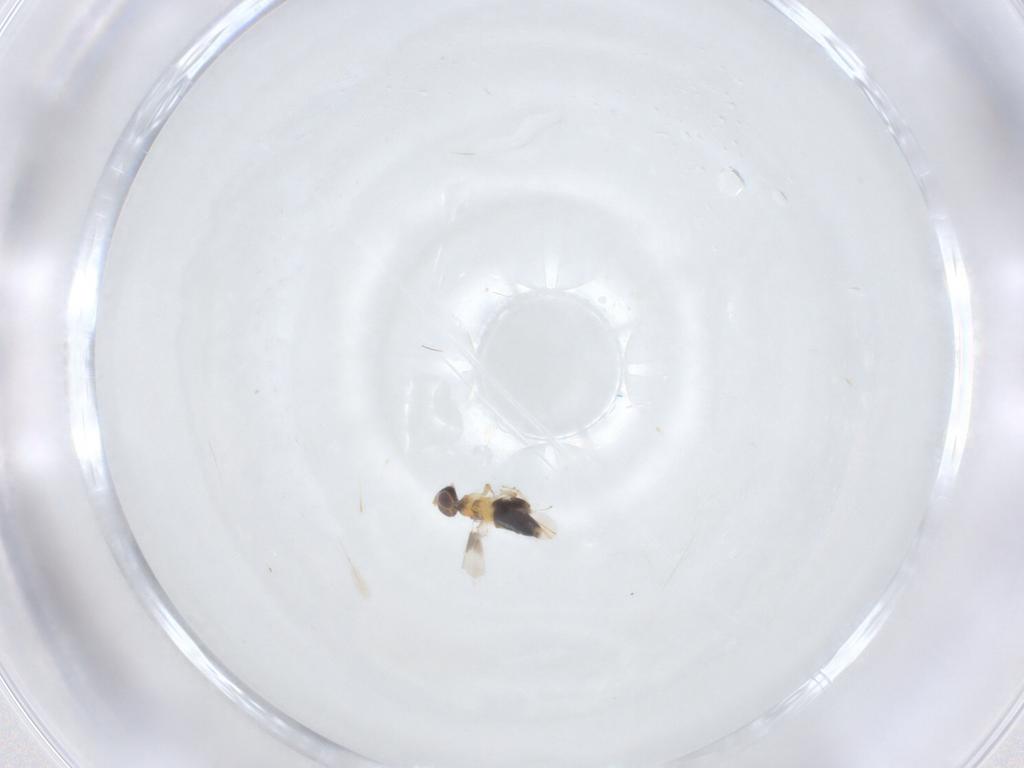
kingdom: Animalia
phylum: Arthropoda
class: Insecta
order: Hymenoptera
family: Aphelinidae
